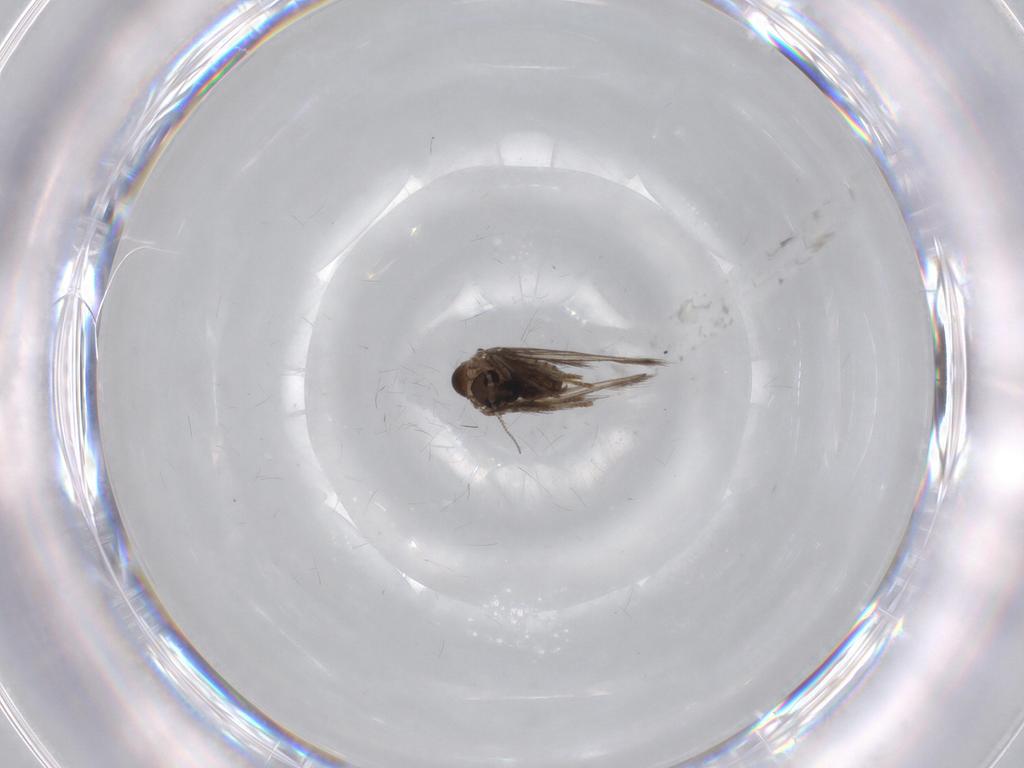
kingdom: Animalia
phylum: Arthropoda
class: Insecta
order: Diptera
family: Psychodidae
